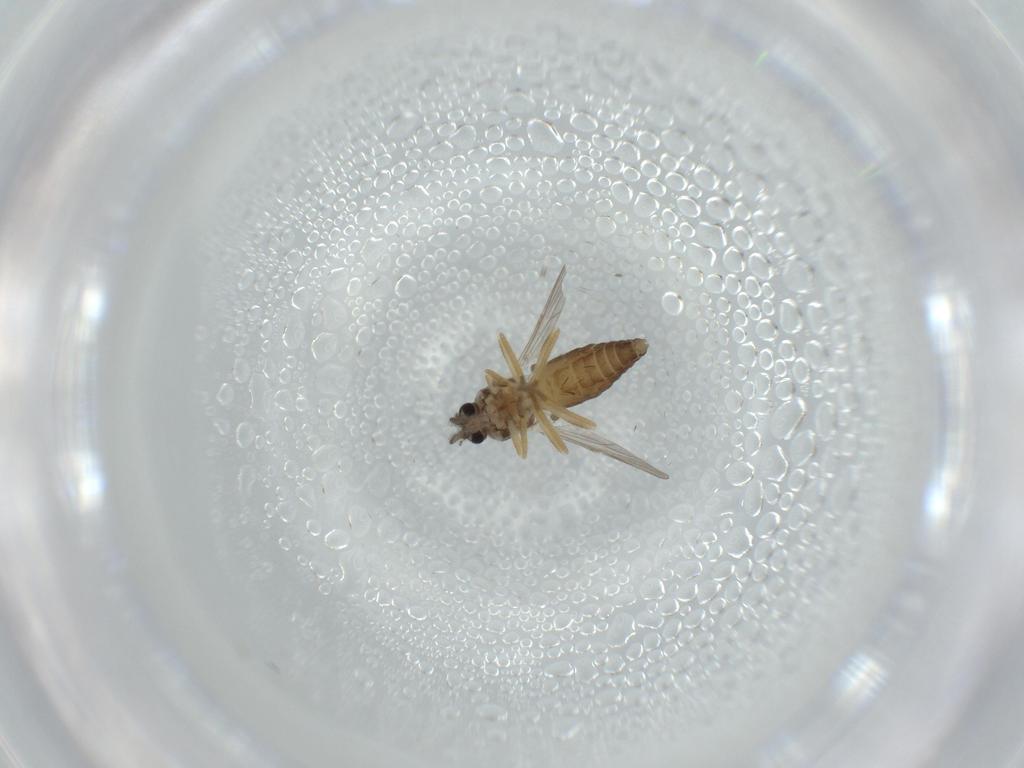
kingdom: Animalia
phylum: Arthropoda
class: Insecta
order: Diptera
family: Ceratopogonidae
